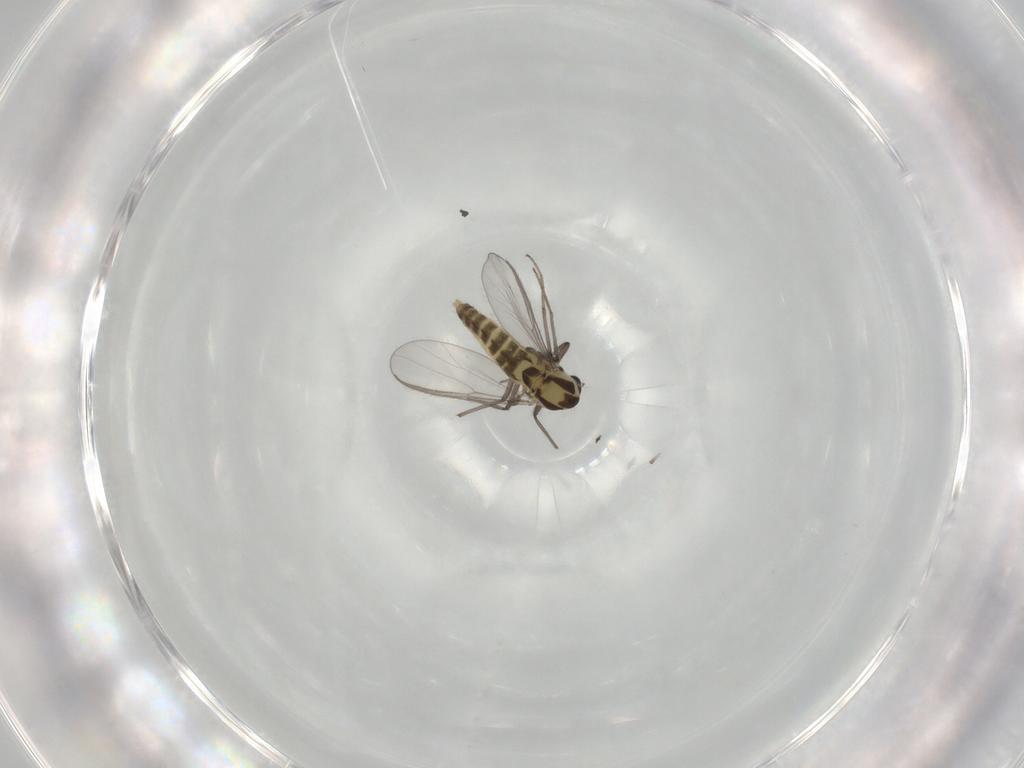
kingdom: Animalia
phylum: Arthropoda
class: Insecta
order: Diptera
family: Chironomidae
